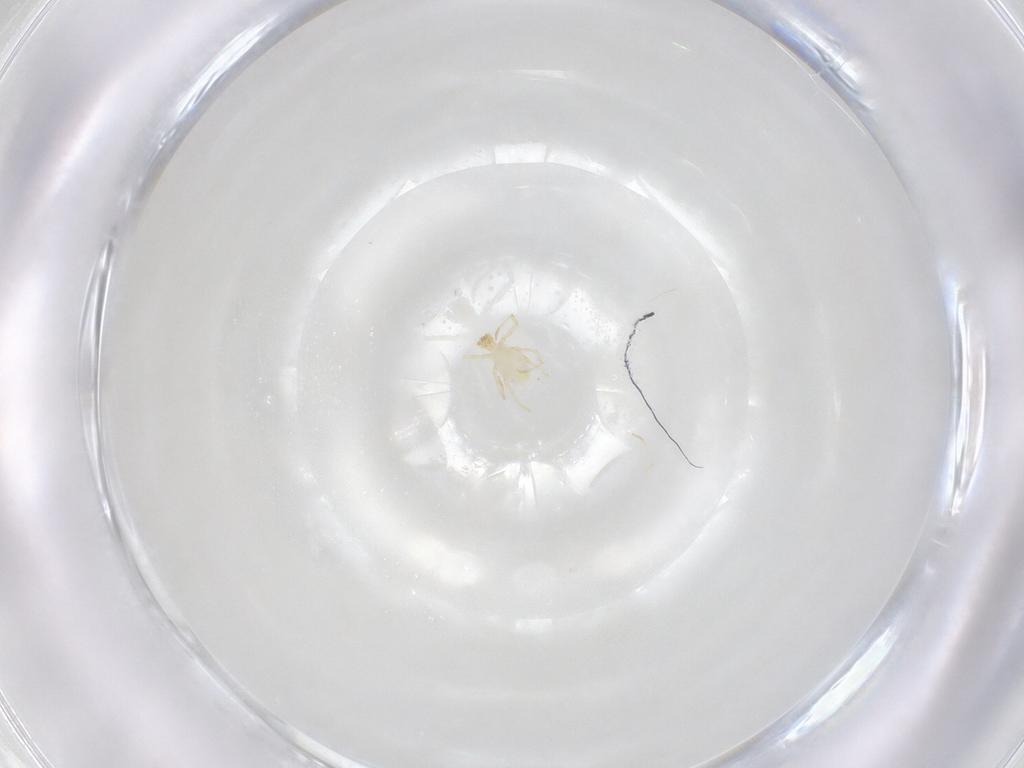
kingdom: Animalia
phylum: Arthropoda
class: Arachnida
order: Trombidiformes
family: Erythraeidae
